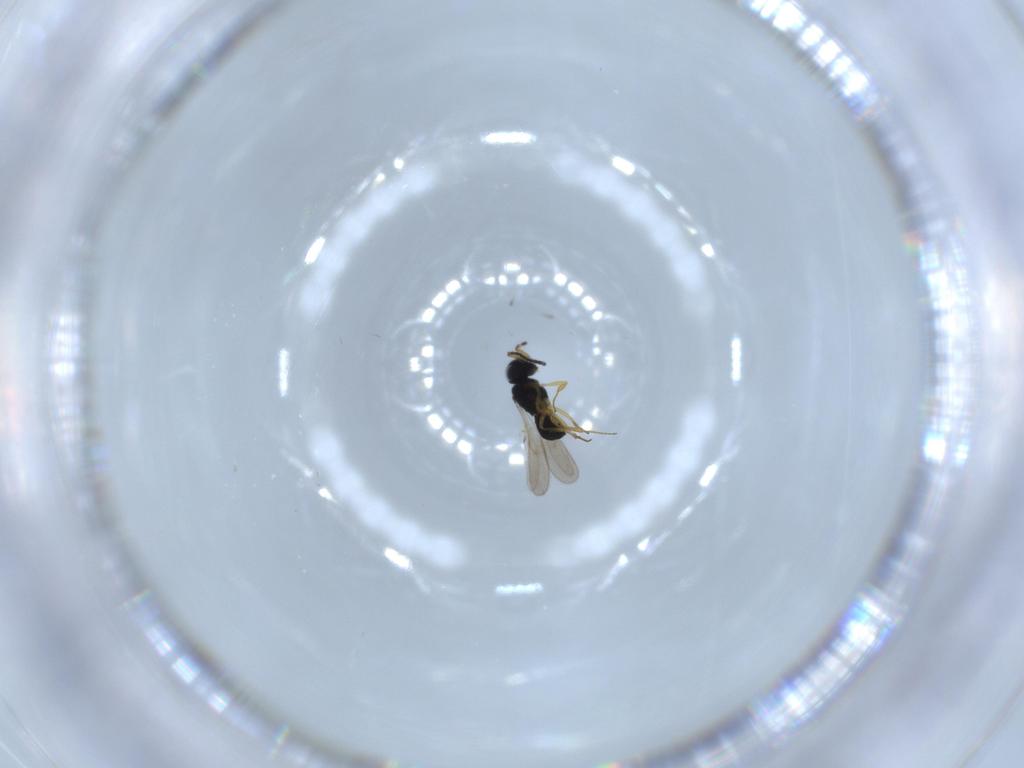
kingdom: Animalia
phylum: Arthropoda
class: Insecta
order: Hymenoptera
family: Scelionidae
